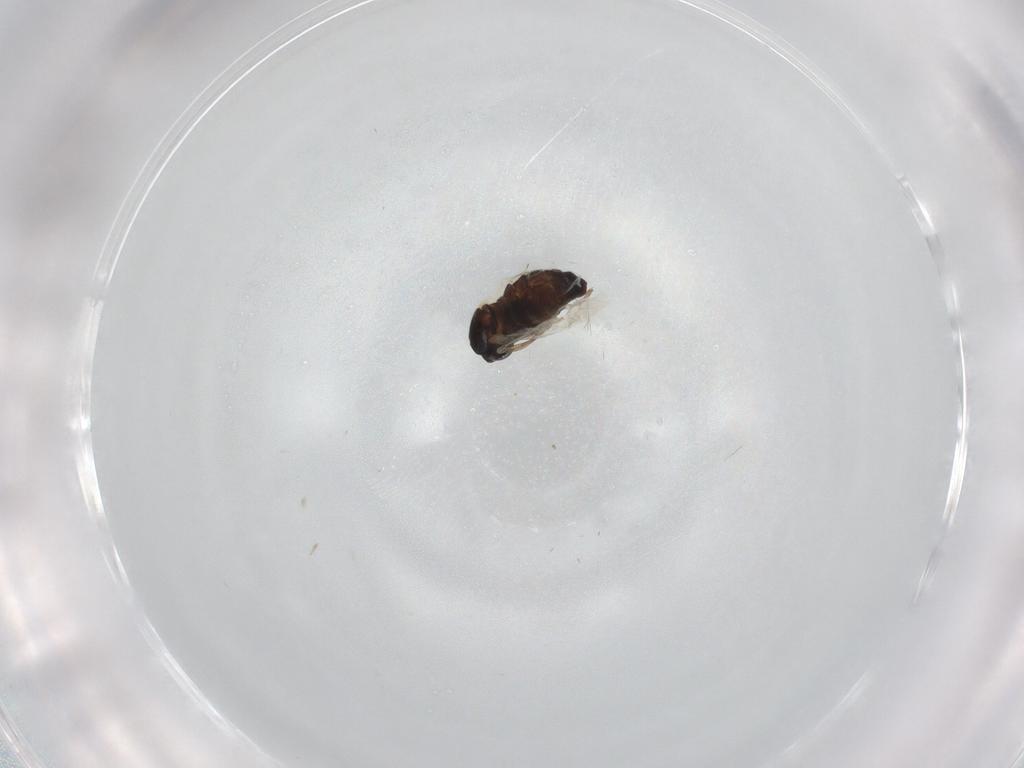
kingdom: Animalia
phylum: Arthropoda
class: Insecta
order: Diptera
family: Cecidomyiidae
